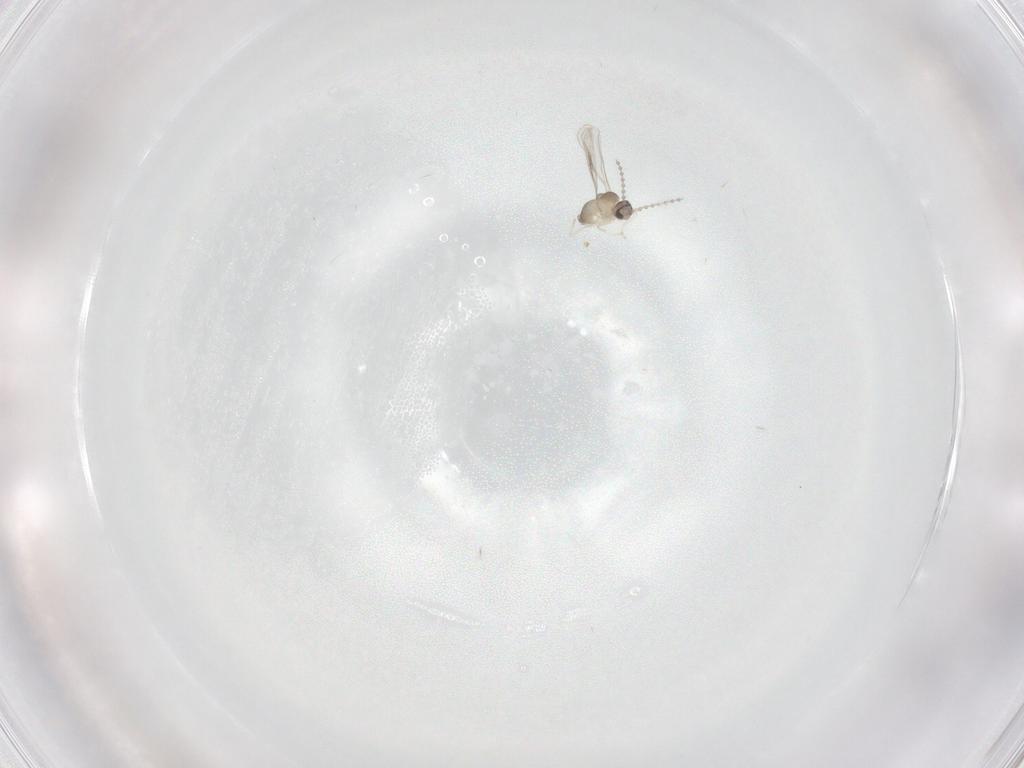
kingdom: Animalia
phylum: Arthropoda
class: Insecta
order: Diptera
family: Cecidomyiidae
